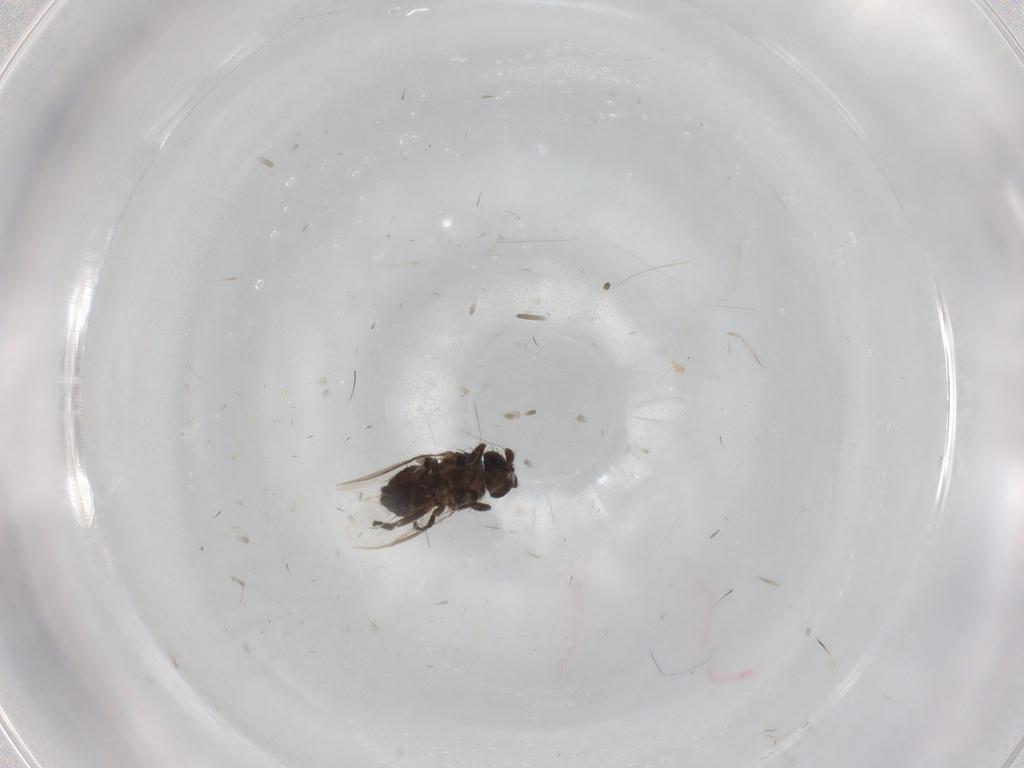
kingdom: Animalia
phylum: Arthropoda
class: Insecta
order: Diptera
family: Sphaeroceridae
